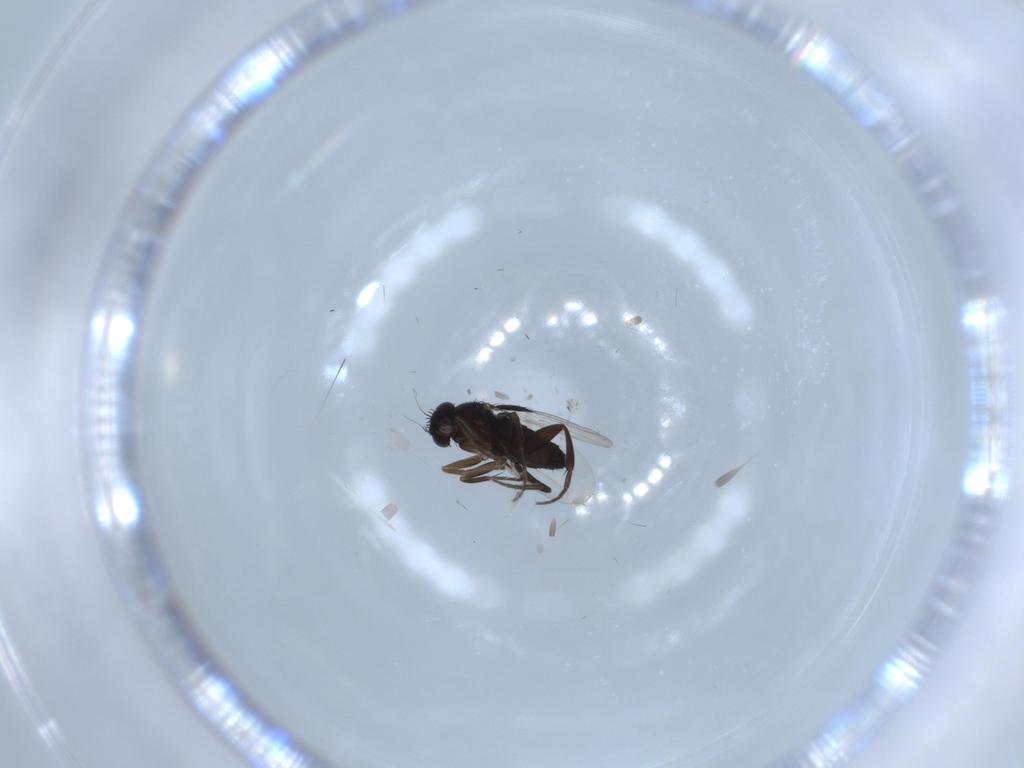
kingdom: Animalia
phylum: Arthropoda
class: Insecta
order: Diptera
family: Phoridae
